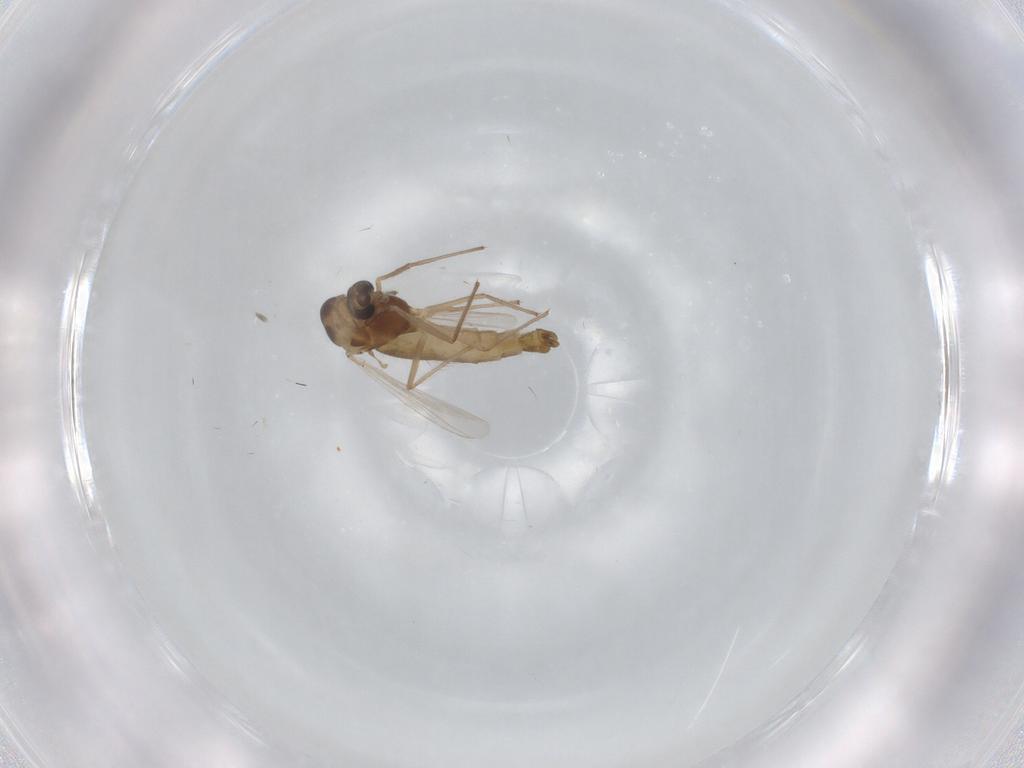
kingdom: Animalia
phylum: Arthropoda
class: Insecta
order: Diptera
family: Chironomidae
